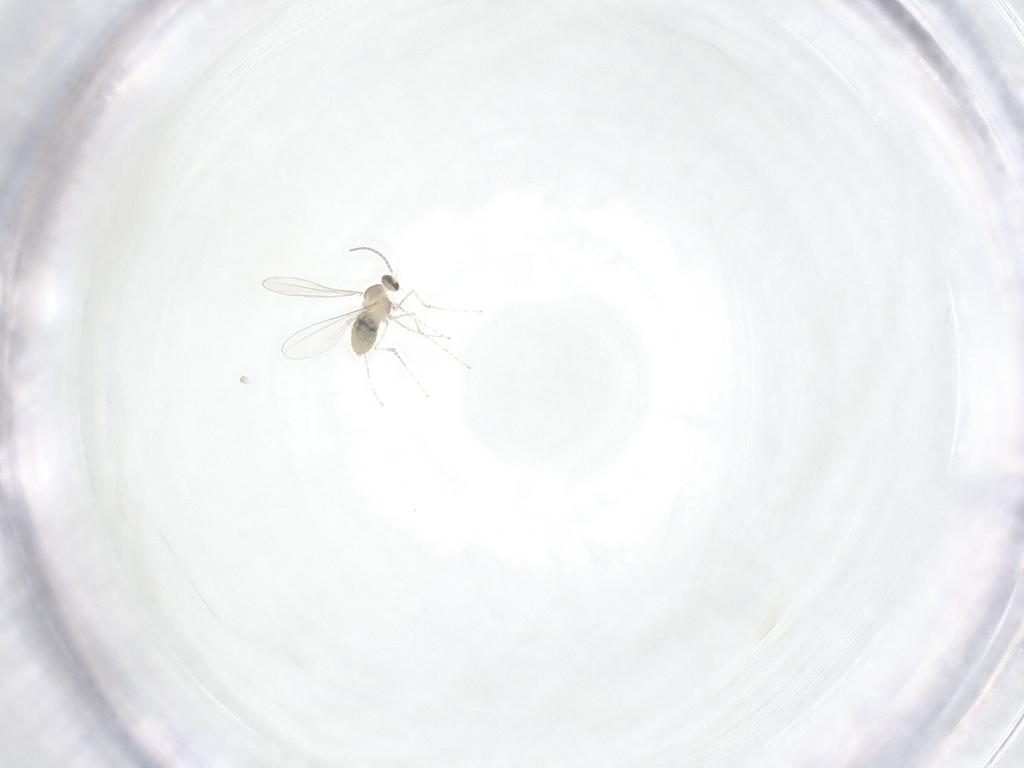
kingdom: Animalia
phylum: Arthropoda
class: Insecta
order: Diptera
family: Cecidomyiidae
